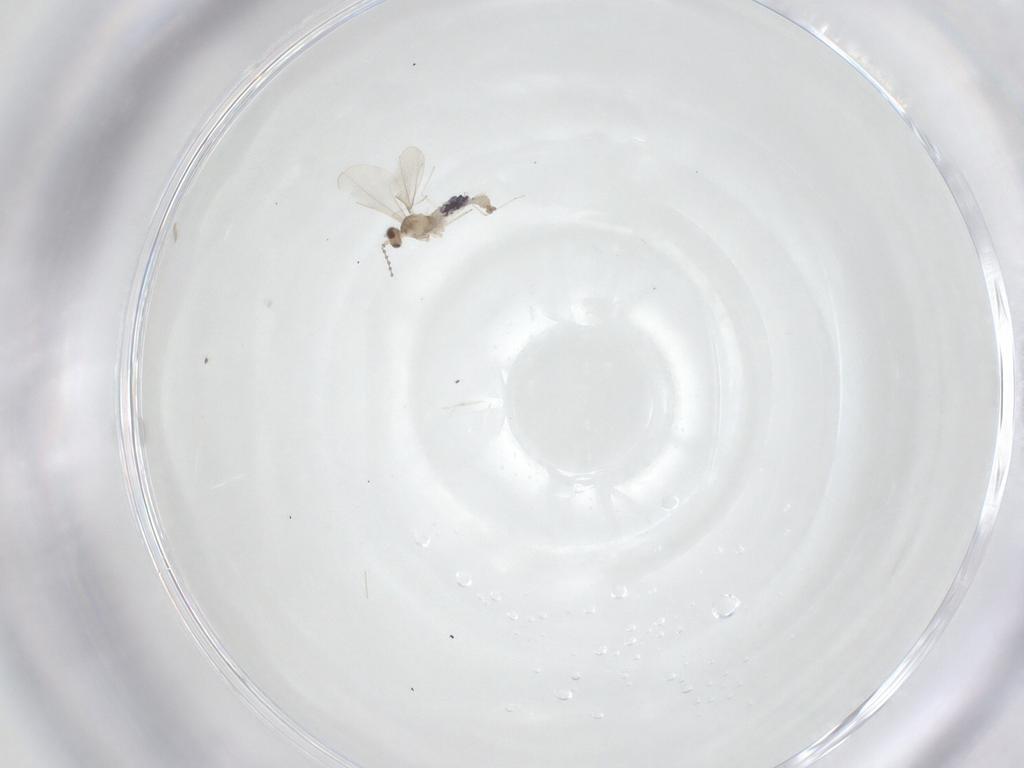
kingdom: Animalia
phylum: Arthropoda
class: Insecta
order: Diptera
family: Cecidomyiidae
